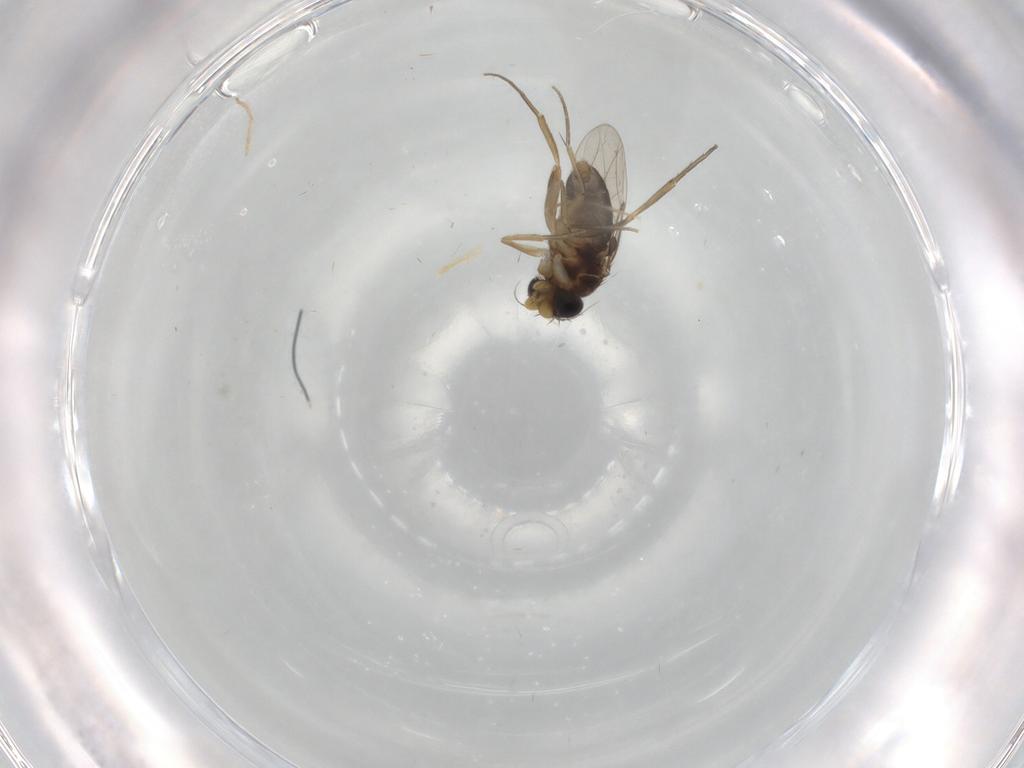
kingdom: Animalia
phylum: Arthropoda
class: Insecta
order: Diptera
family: Phoridae
